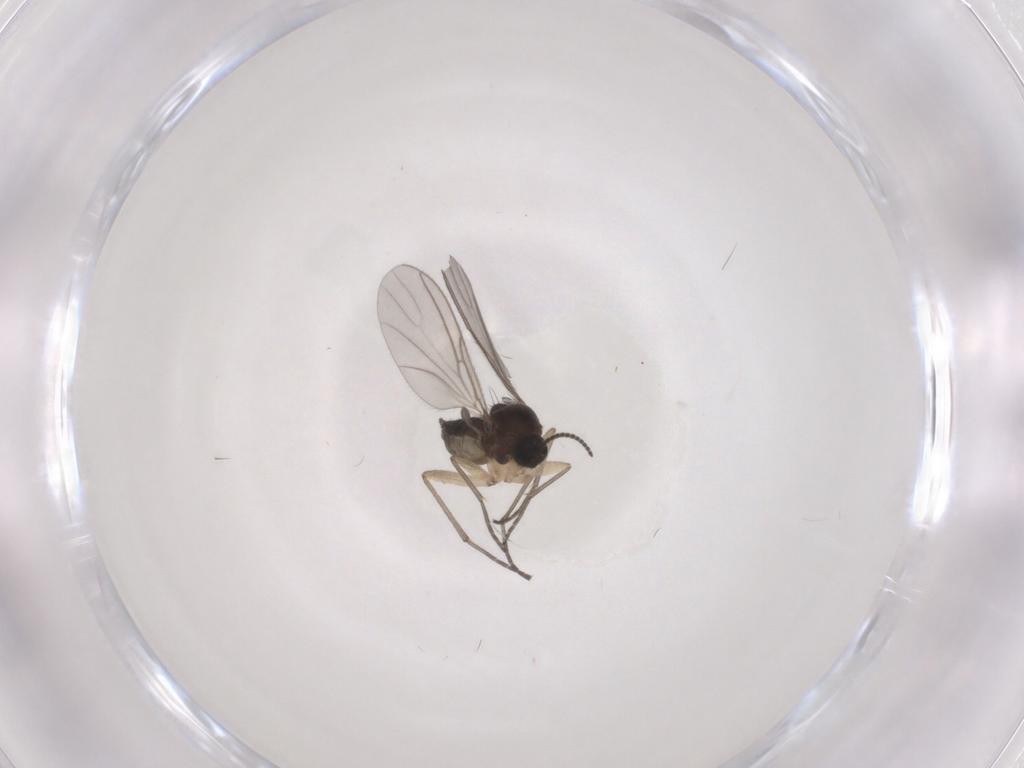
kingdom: Animalia
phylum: Arthropoda
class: Insecta
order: Diptera
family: Sciaridae
